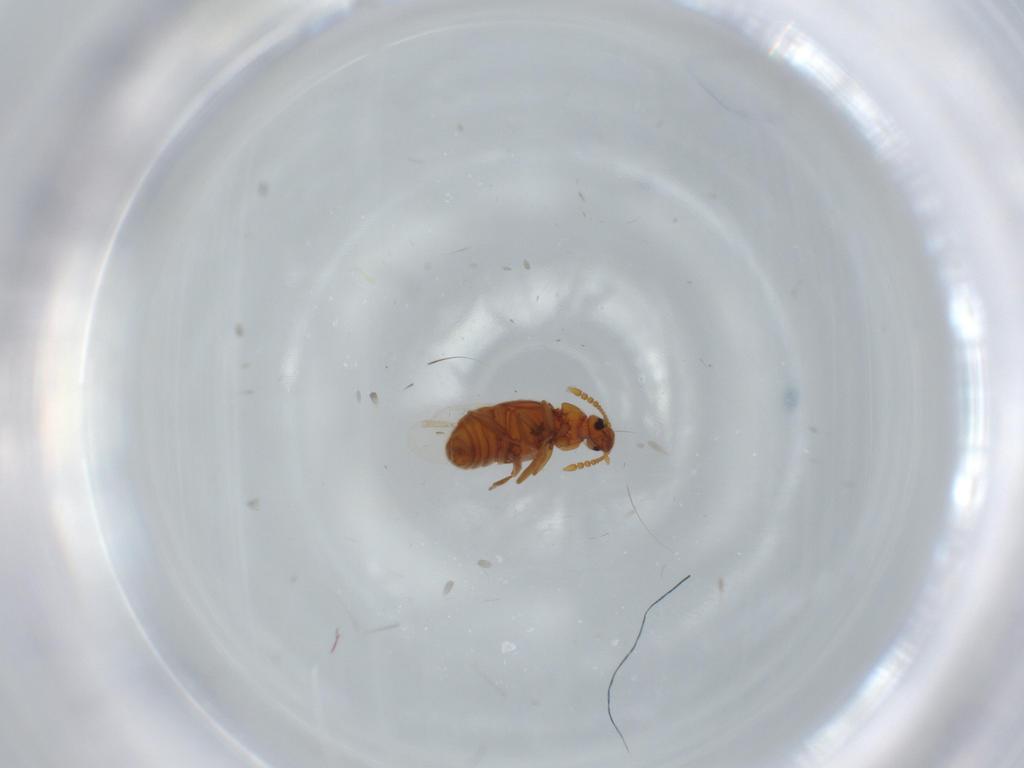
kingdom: Animalia
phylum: Arthropoda
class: Insecta
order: Coleoptera
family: Staphylinidae
